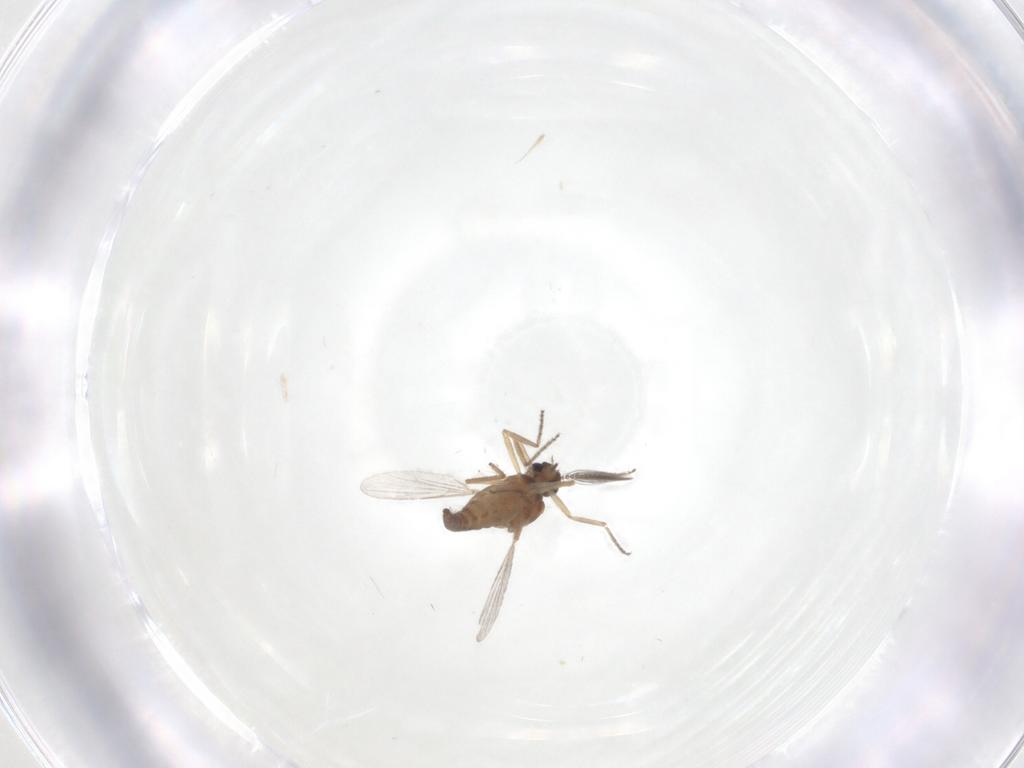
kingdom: Animalia
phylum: Arthropoda
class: Insecta
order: Diptera
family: Ceratopogonidae
